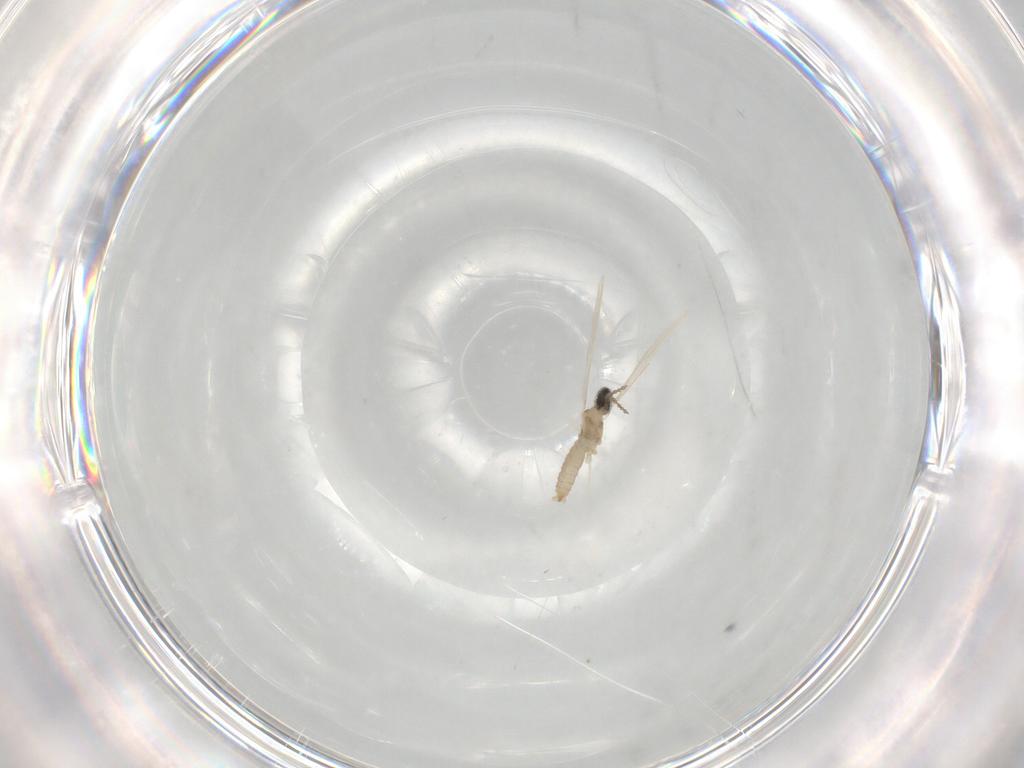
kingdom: Animalia
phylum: Arthropoda
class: Insecta
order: Diptera
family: Cecidomyiidae
